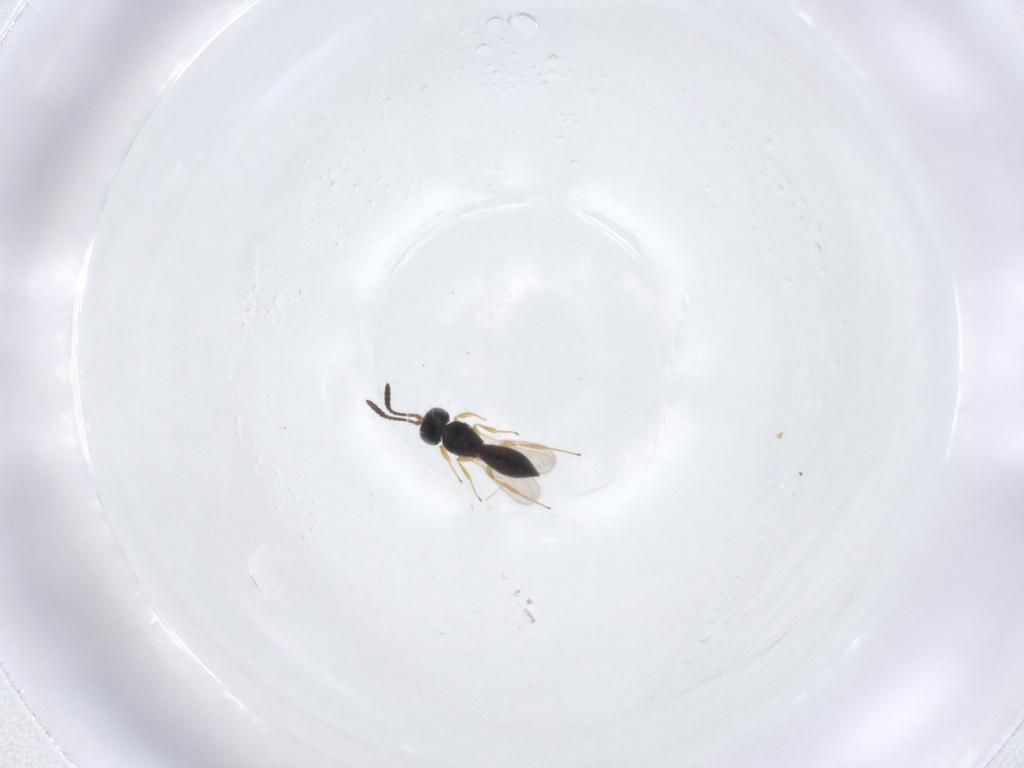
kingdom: Animalia
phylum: Arthropoda
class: Insecta
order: Hymenoptera
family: Scelionidae
